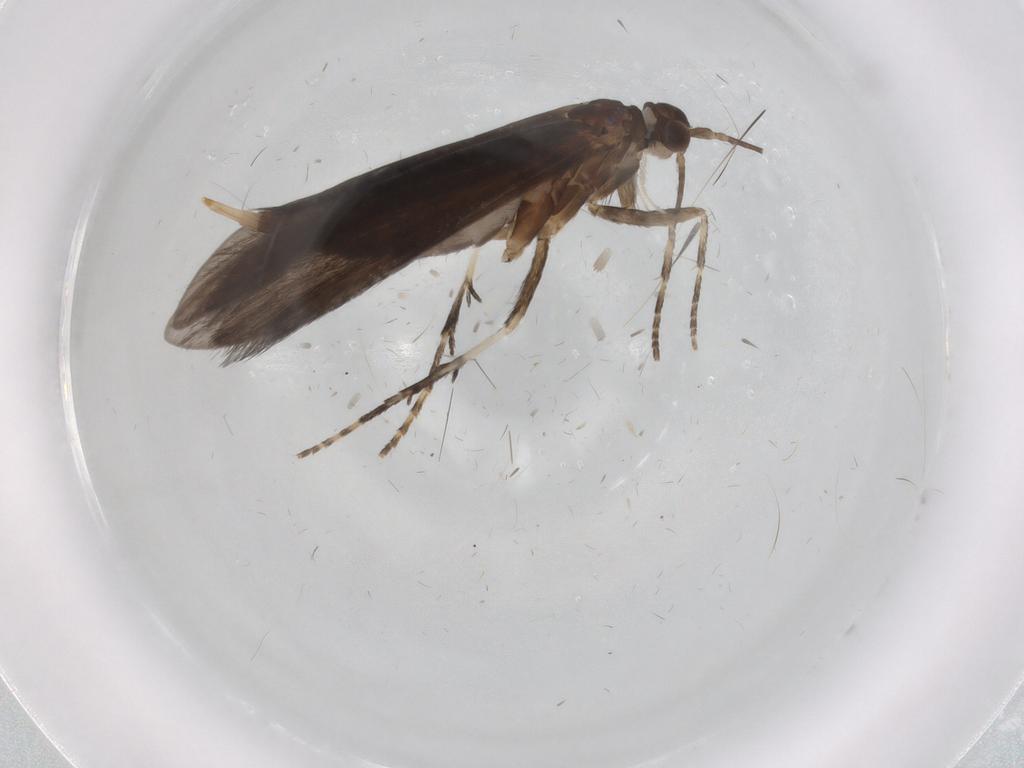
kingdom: Animalia
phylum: Arthropoda
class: Insecta
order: Trichoptera
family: Xiphocentronidae
